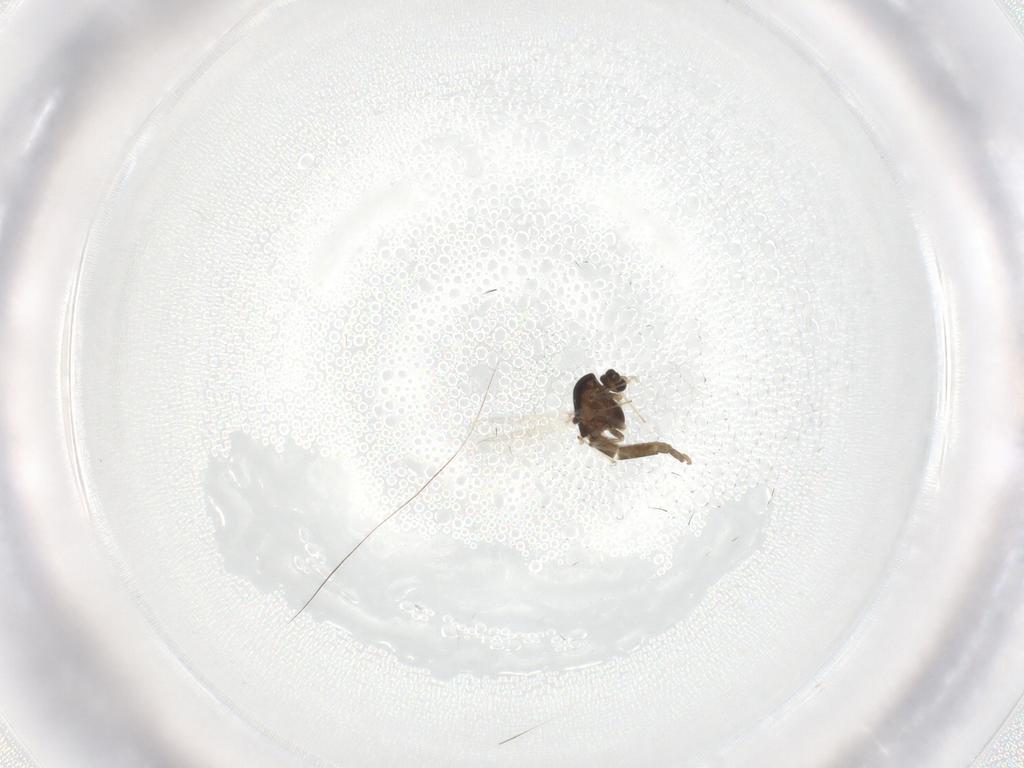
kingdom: Animalia
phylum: Arthropoda
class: Insecta
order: Diptera
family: Chironomidae
